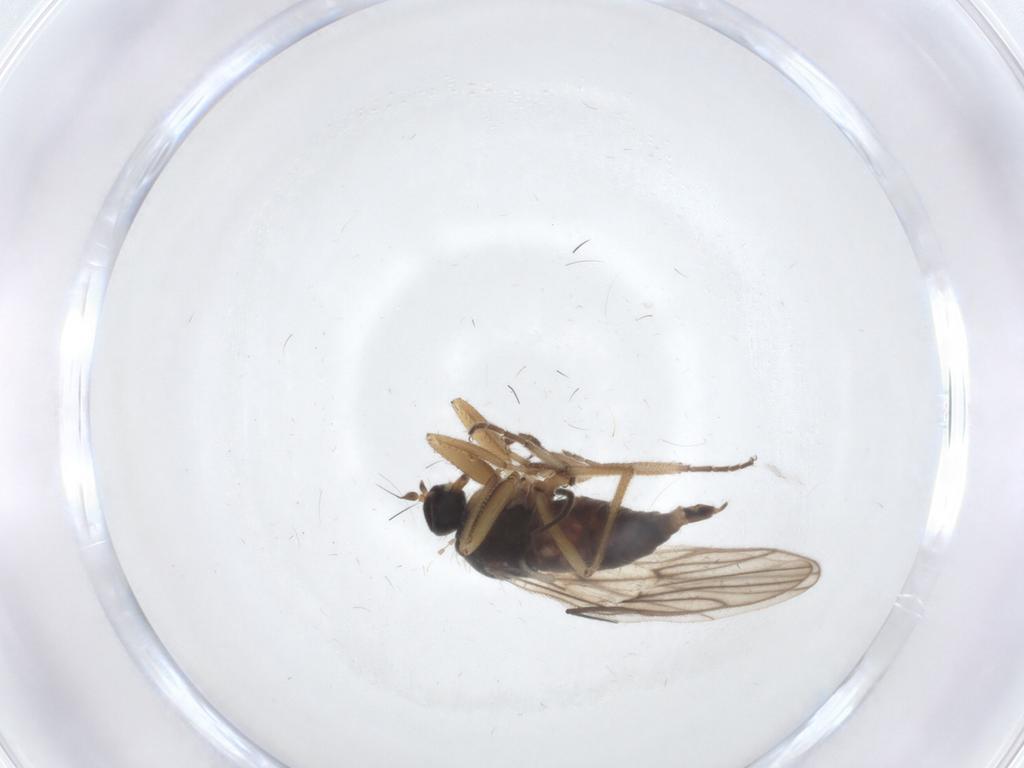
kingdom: Animalia
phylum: Arthropoda
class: Insecta
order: Diptera
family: Hybotidae
